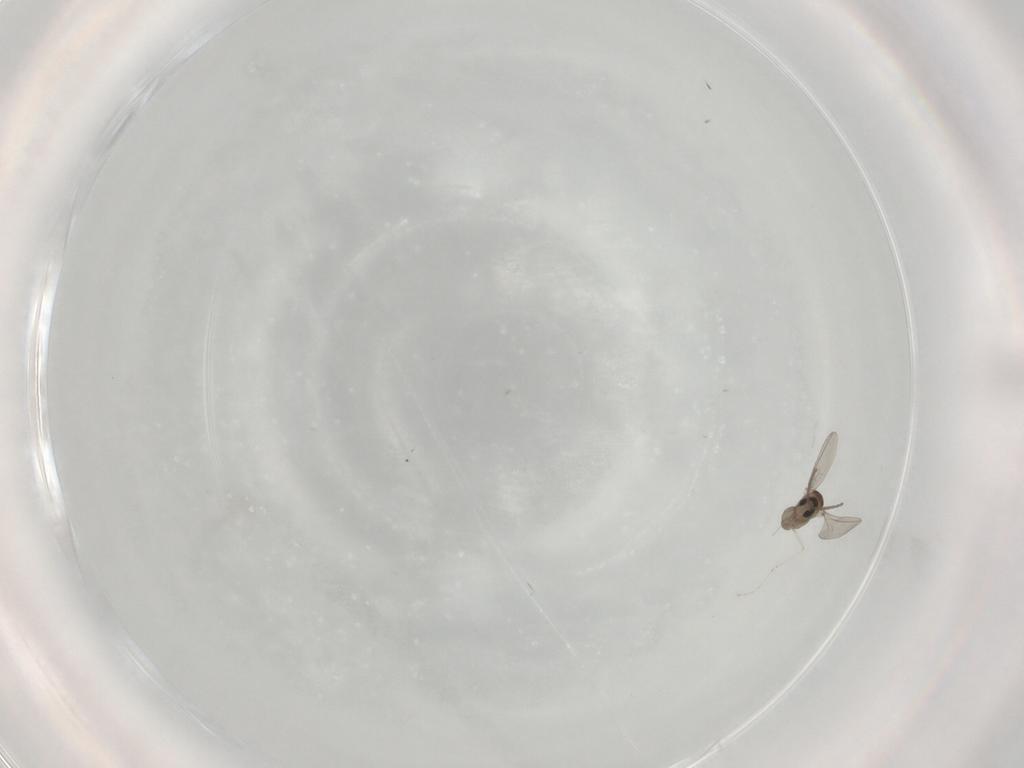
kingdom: Animalia
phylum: Arthropoda
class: Insecta
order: Diptera
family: Cecidomyiidae
